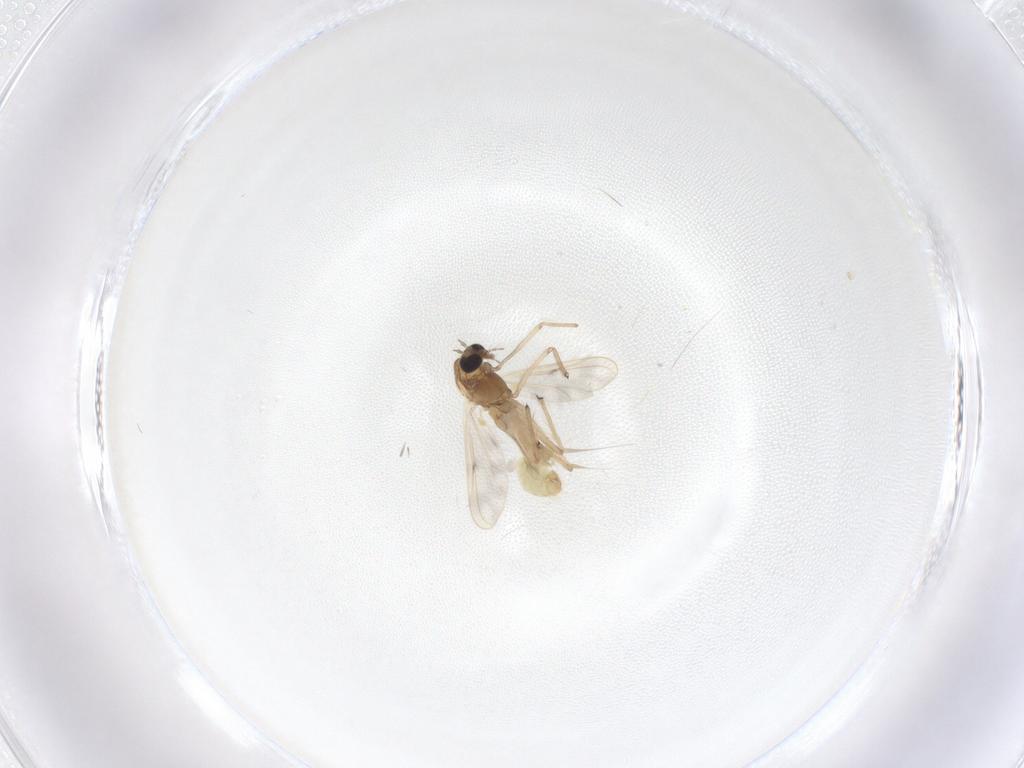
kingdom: Animalia
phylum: Arthropoda
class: Insecta
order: Diptera
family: Chironomidae
